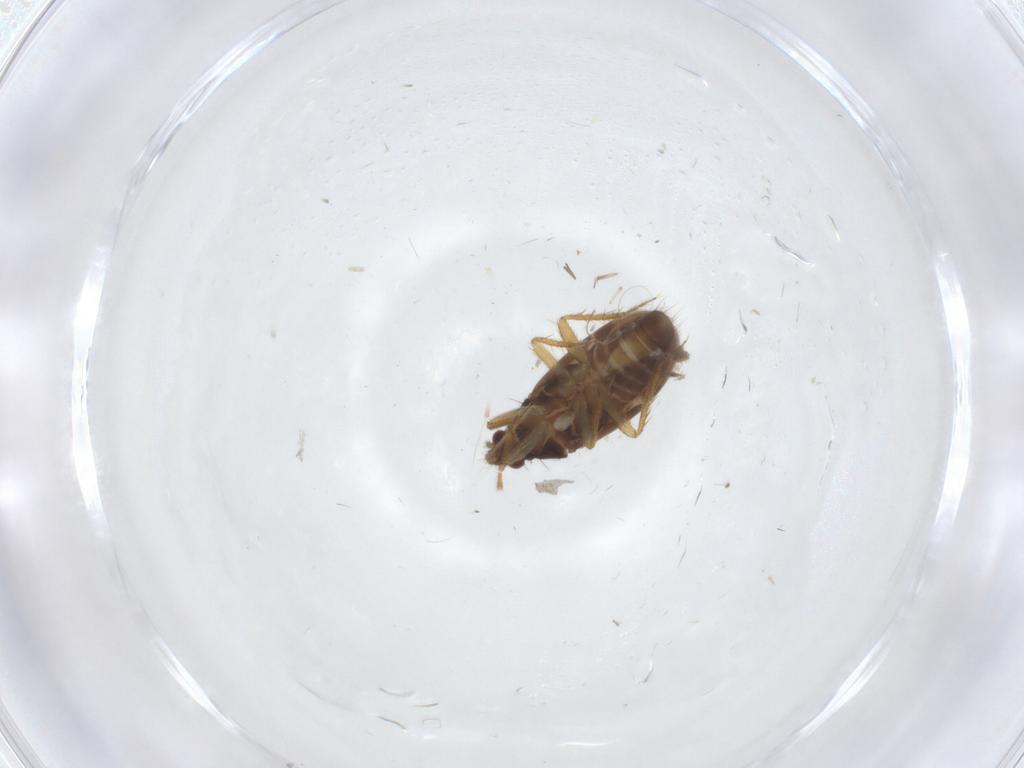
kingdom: Animalia
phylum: Arthropoda
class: Insecta
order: Hemiptera
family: Ceratocombidae
